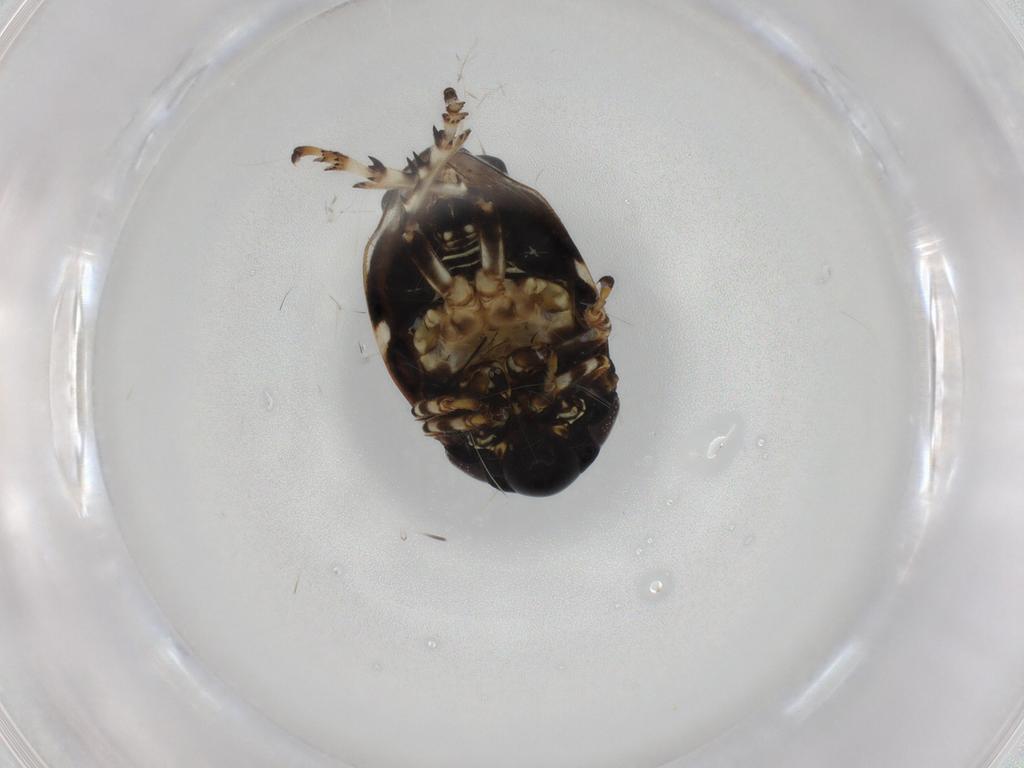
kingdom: Animalia
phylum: Arthropoda
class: Insecta
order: Hemiptera
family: Clastopteridae
